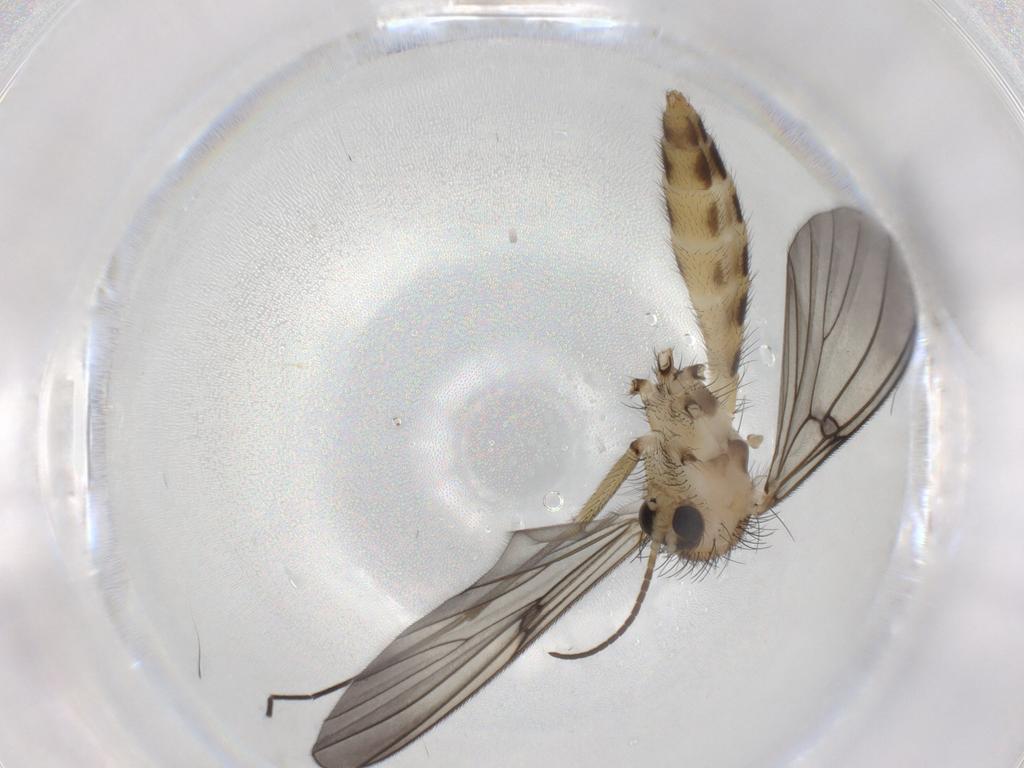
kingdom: Animalia
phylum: Arthropoda
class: Insecta
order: Diptera
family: Mycetophilidae
